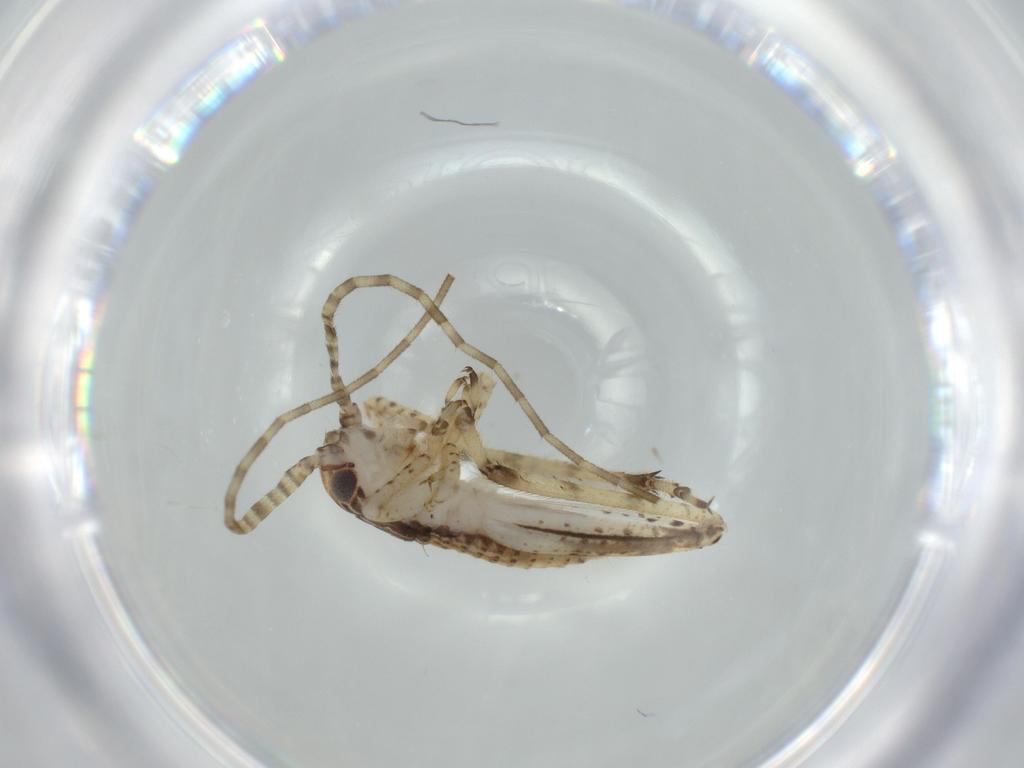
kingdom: Animalia
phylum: Arthropoda
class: Insecta
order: Orthoptera
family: Gryllidae
